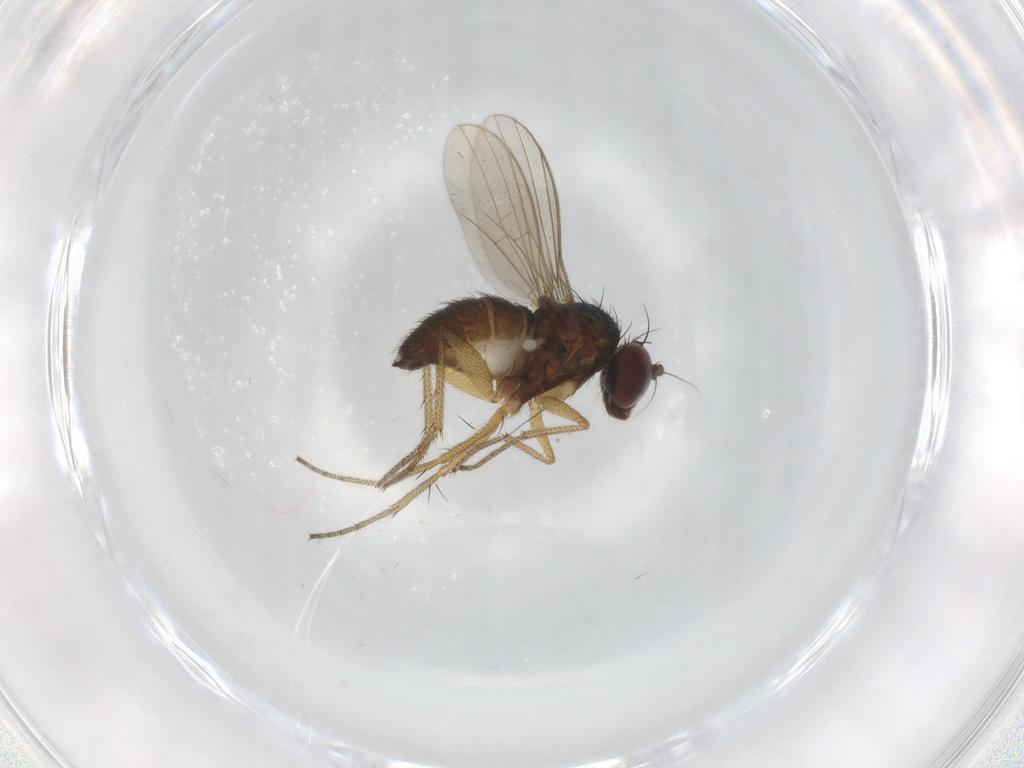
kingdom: Animalia
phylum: Arthropoda
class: Insecta
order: Diptera
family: Dolichopodidae
